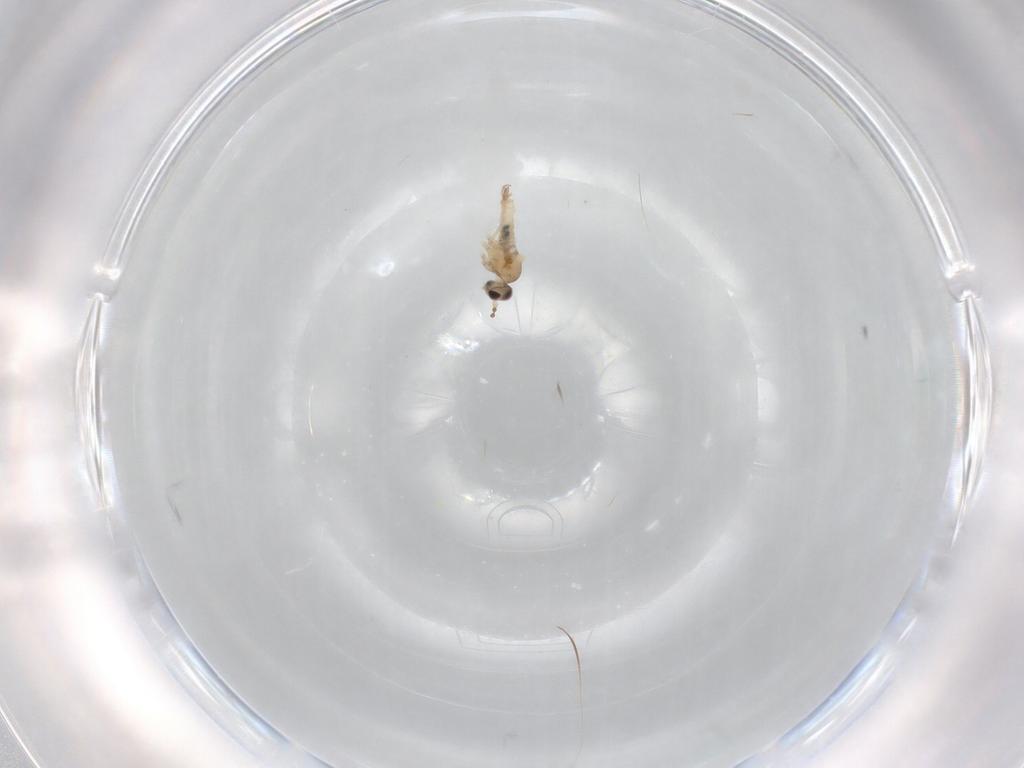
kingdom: Animalia
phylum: Arthropoda
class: Insecta
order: Diptera
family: Cecidomyiidae
